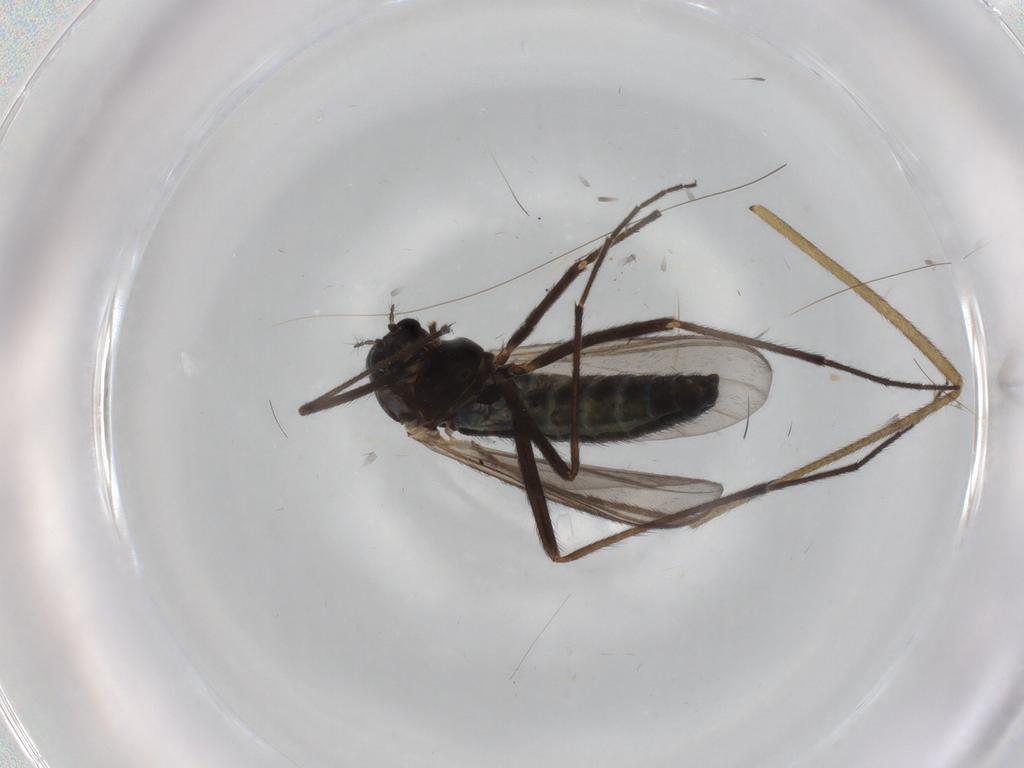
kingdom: Animalia
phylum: Arthropoda
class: Insecta
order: Diptera
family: Chironomidae
